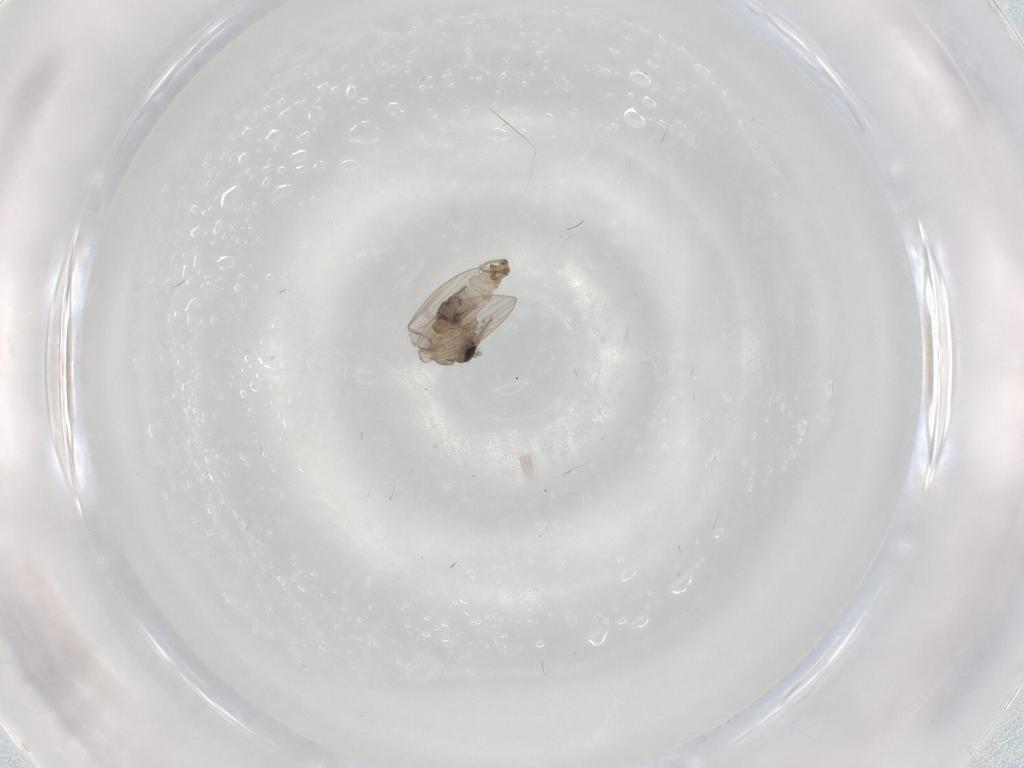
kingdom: Animalia
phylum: Arthropoda
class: Insecta
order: Diptera
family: Psychodidae
